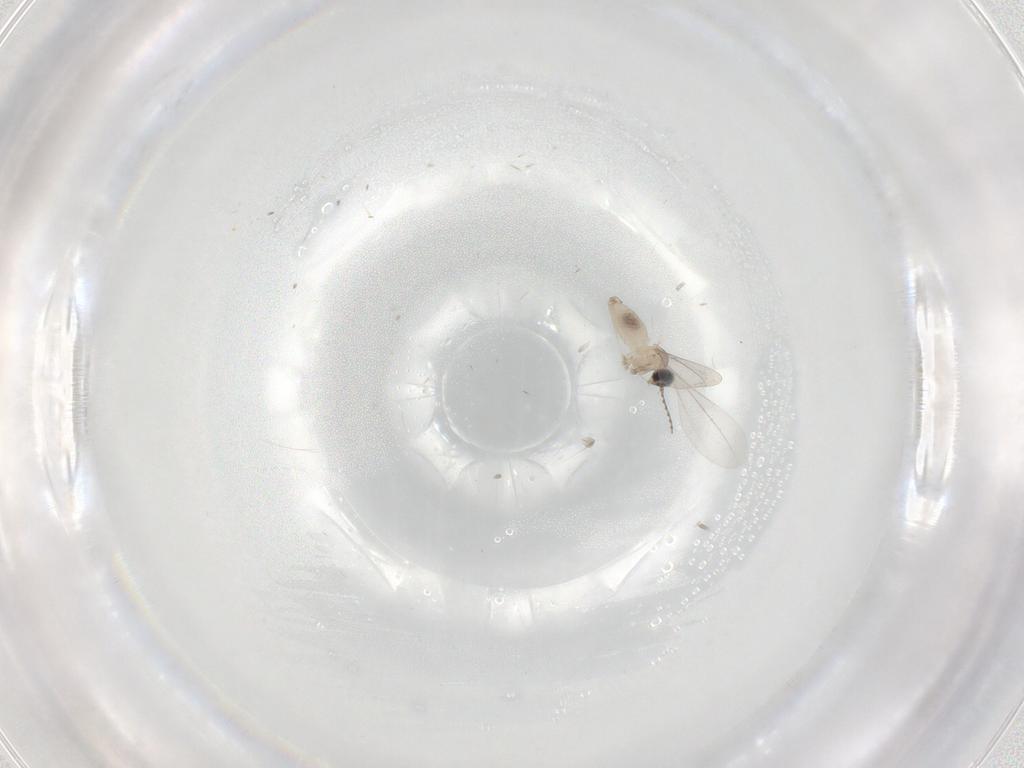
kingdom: Animalia
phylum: Arthropoda
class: Insecta
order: Diptera
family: Cecidomyiidae
